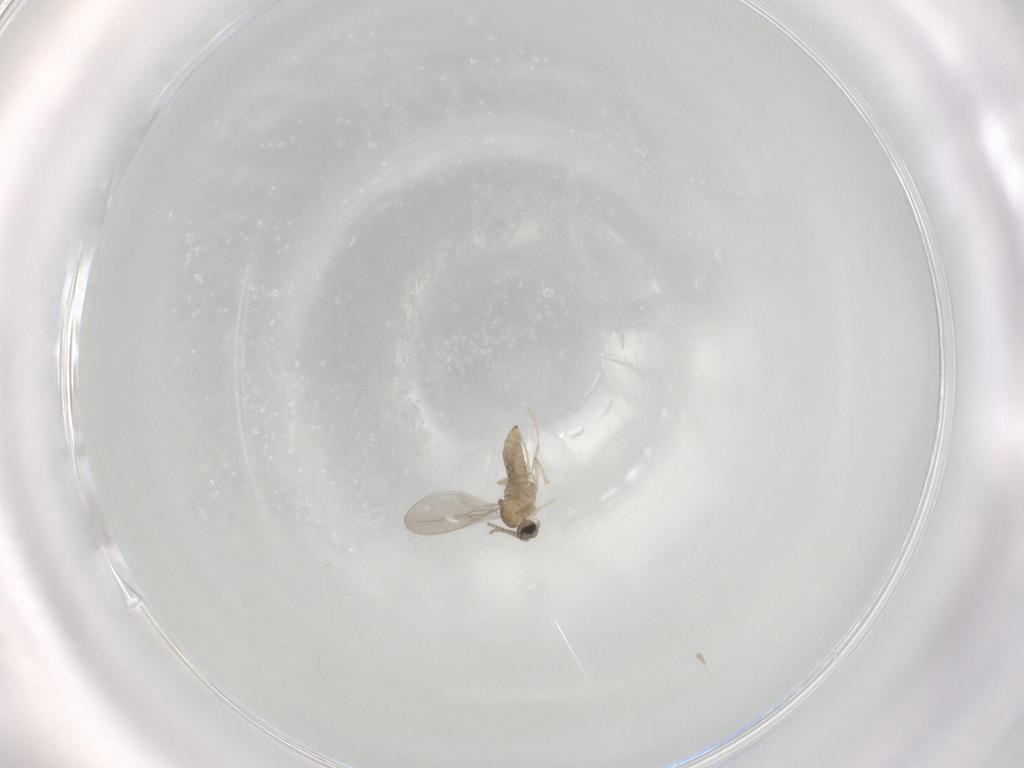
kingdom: Animalia
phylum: Arthropoda
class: Insecta
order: Diptera
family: Cecidomyiidae
